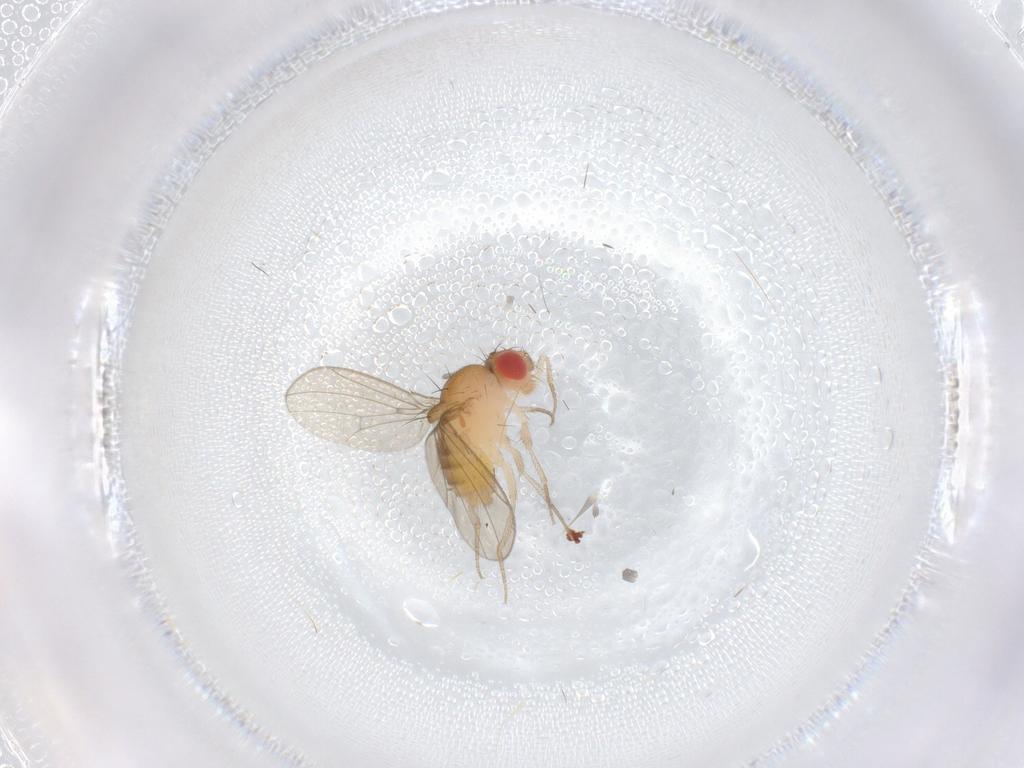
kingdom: Animalia
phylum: Arthropoda
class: Insecta
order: Diptera
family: Drosophilidae
